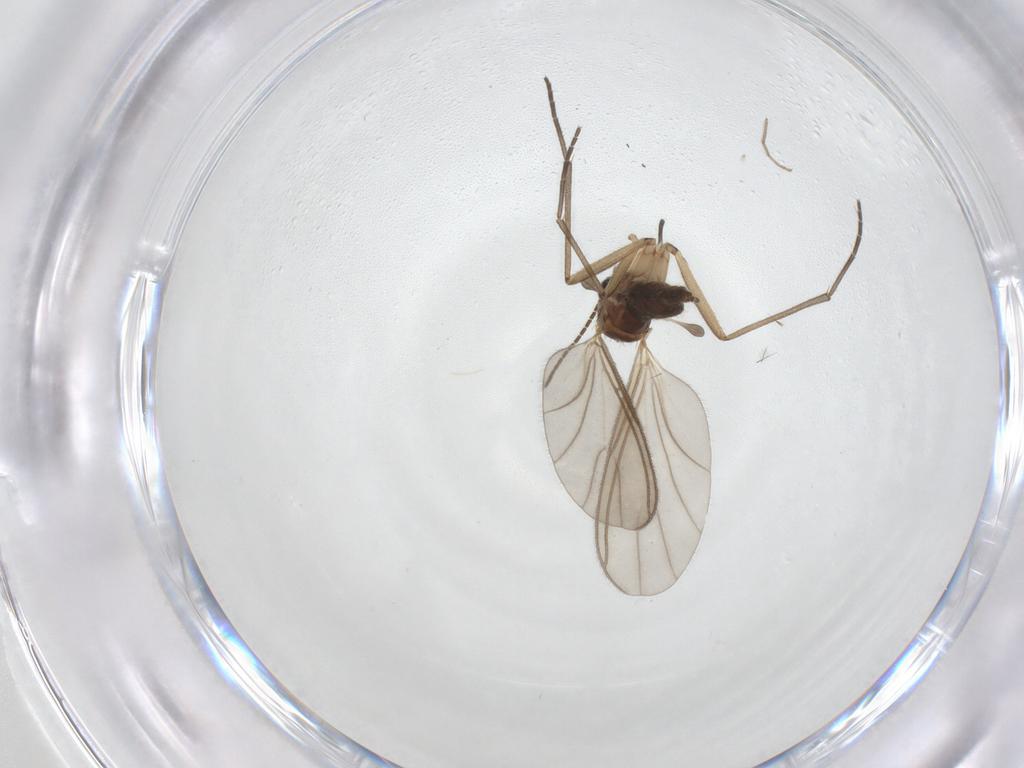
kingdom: Animalia
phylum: Arthropoda
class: Insecta
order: Diptera
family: Sciaridae
